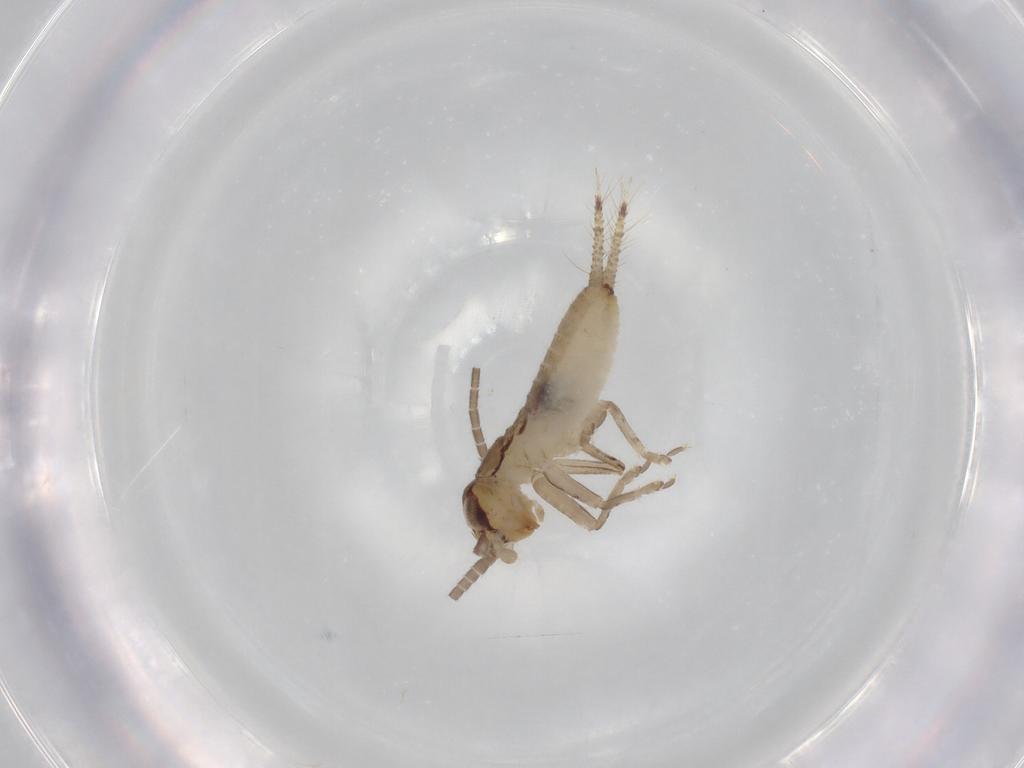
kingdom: Animalia
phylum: Arthropoda
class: Insecta
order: Orthoptera
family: Gryllidae
